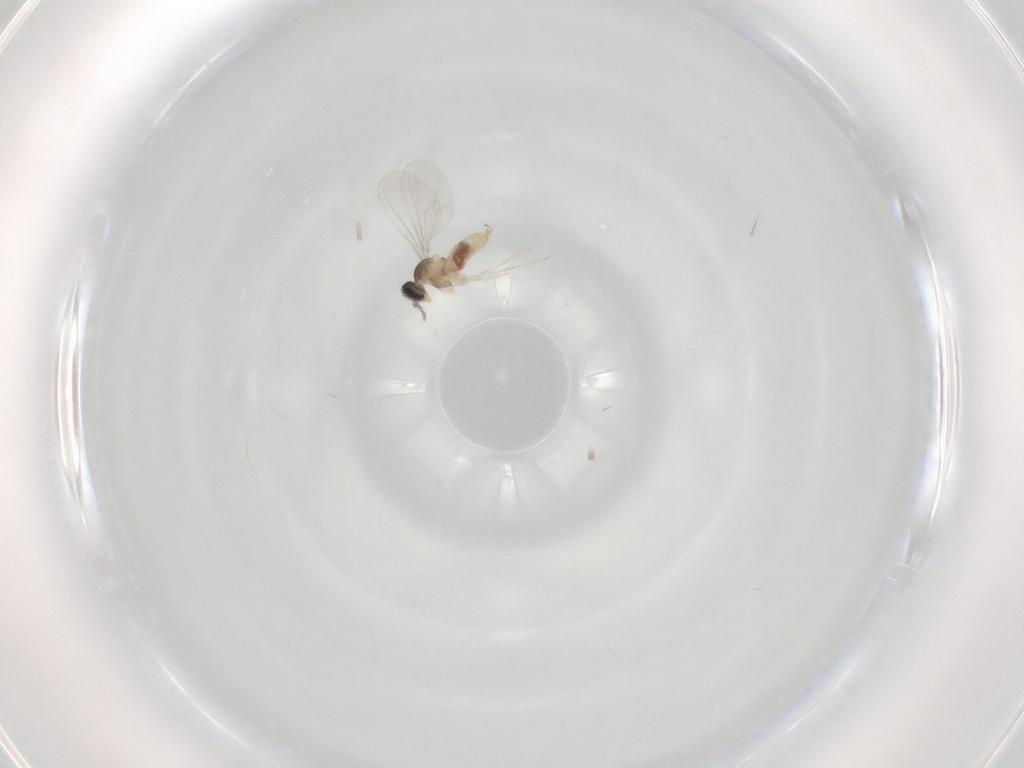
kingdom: Animalia
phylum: Arthropoda
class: Insecta
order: Diptera
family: Cecidomyiidae
